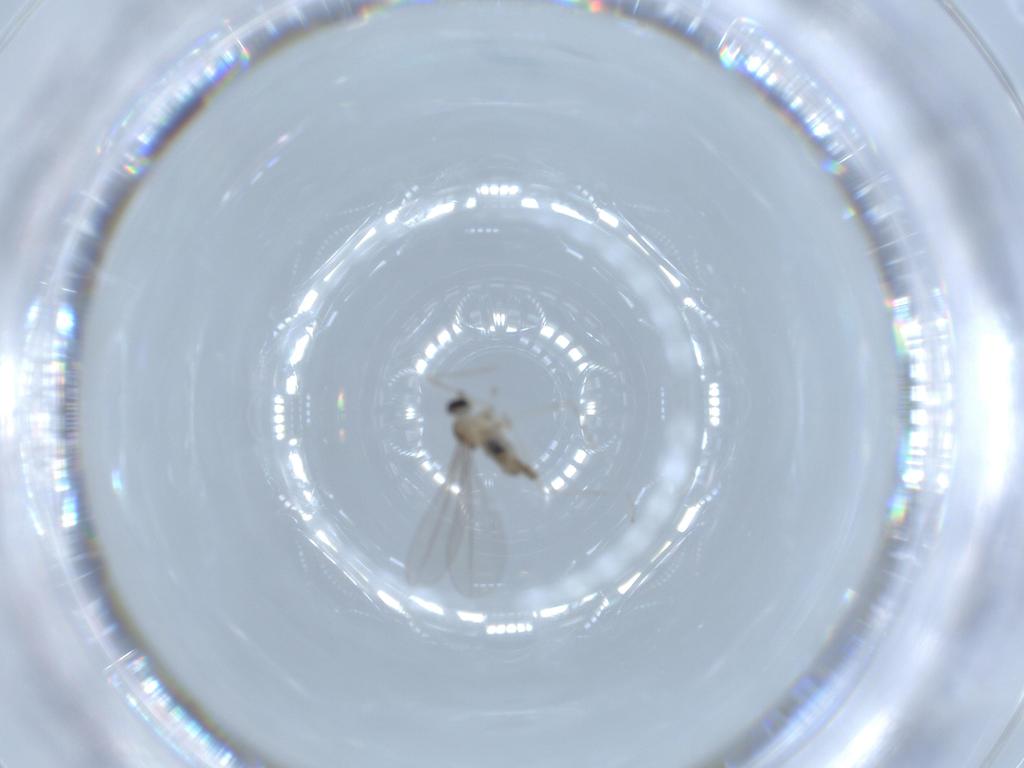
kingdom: Animalia
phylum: Arthropoda
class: Insecta
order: Diptera
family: Cecidomyiidae
